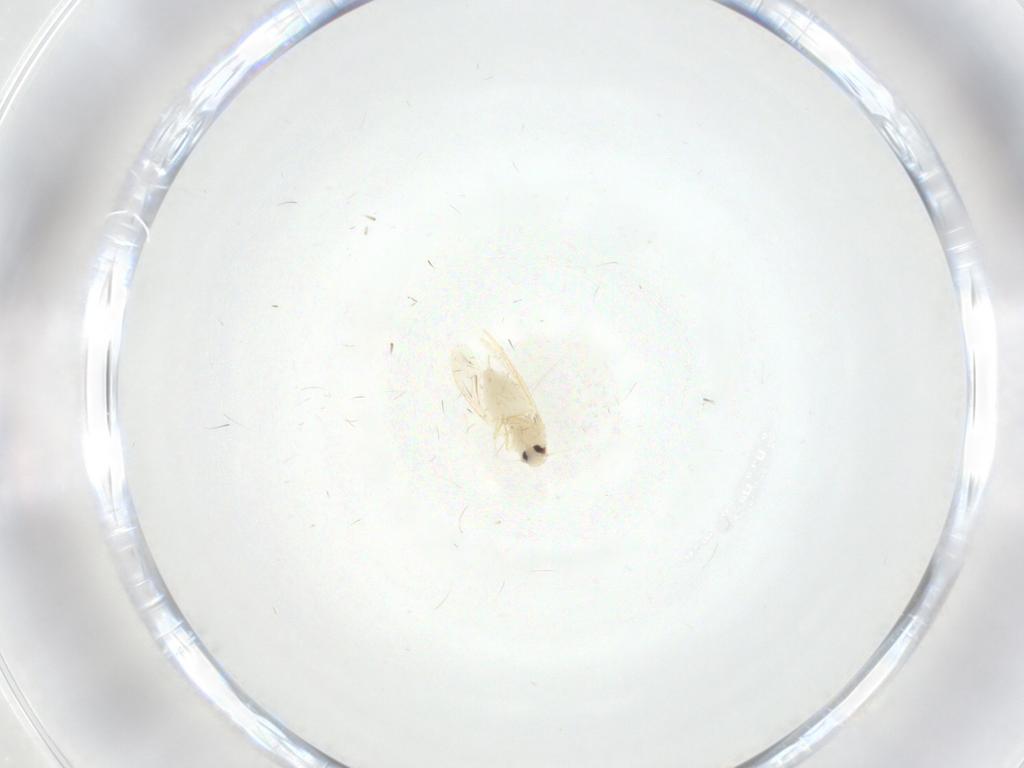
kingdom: Animalia
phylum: Arthropoda
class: Insecta
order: Hemiptera
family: Aleyrodidae
